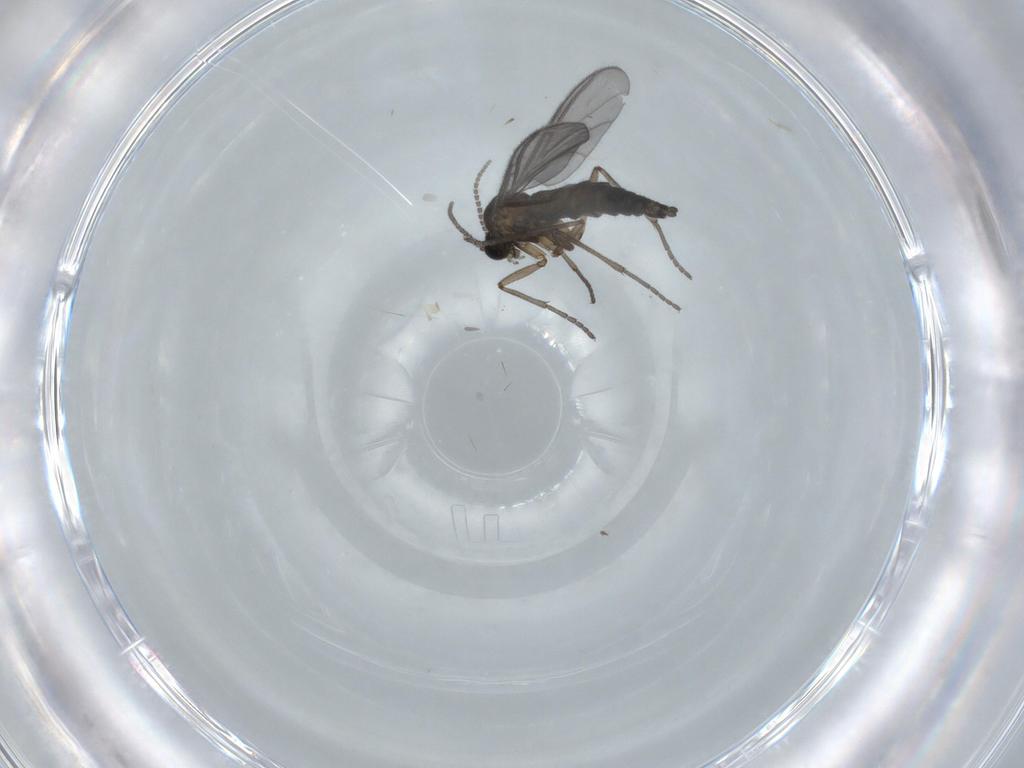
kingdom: Animalia
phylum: Arthropoda
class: Insecta
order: Diptera
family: Sciaridae
